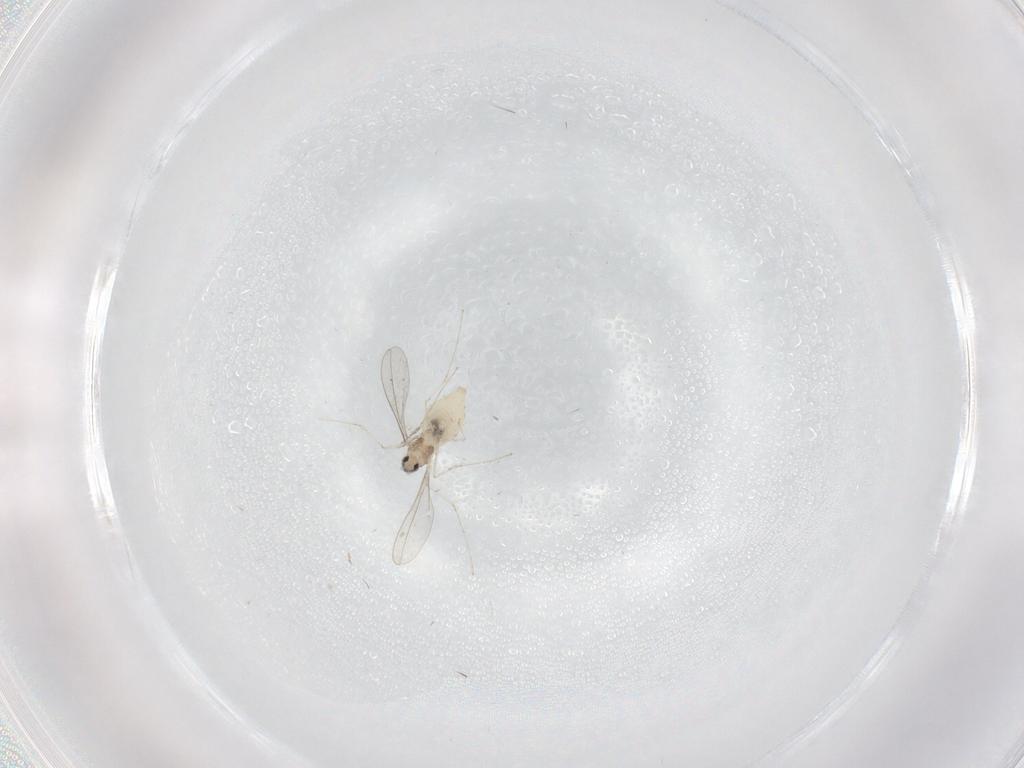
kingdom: Animalia
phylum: Arthropoda
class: Insecta
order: Diptera
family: Cecidomyiidae
